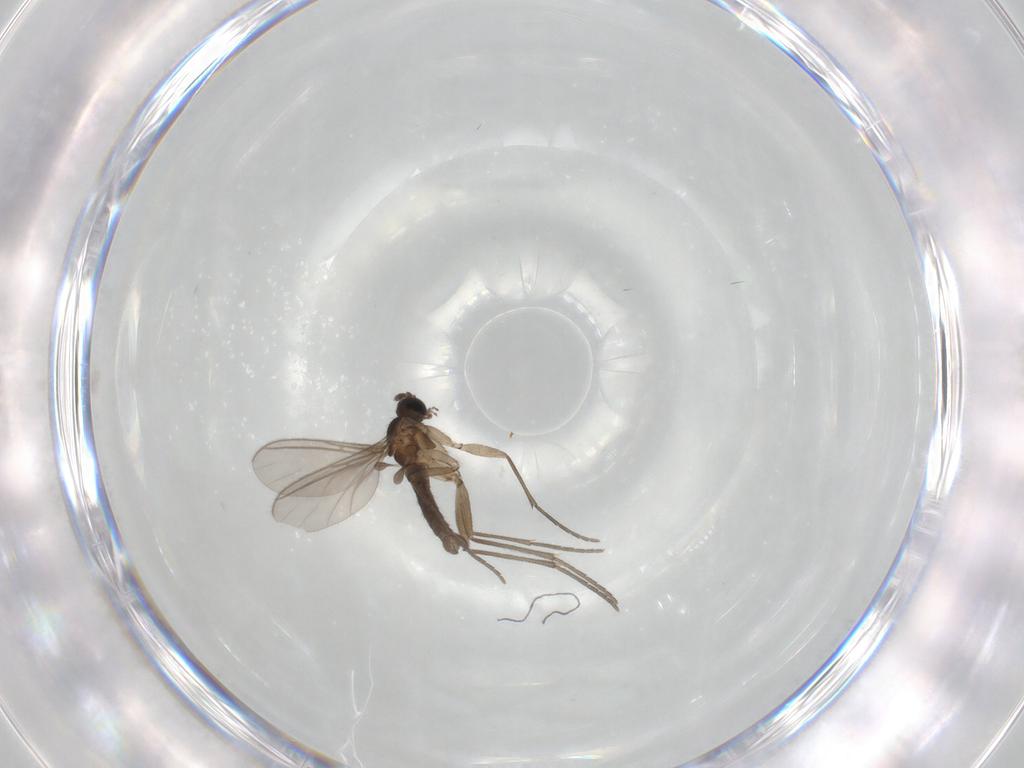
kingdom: Animalia
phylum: Arthropoda
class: Insecta
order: Diptera
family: Sciaridae
